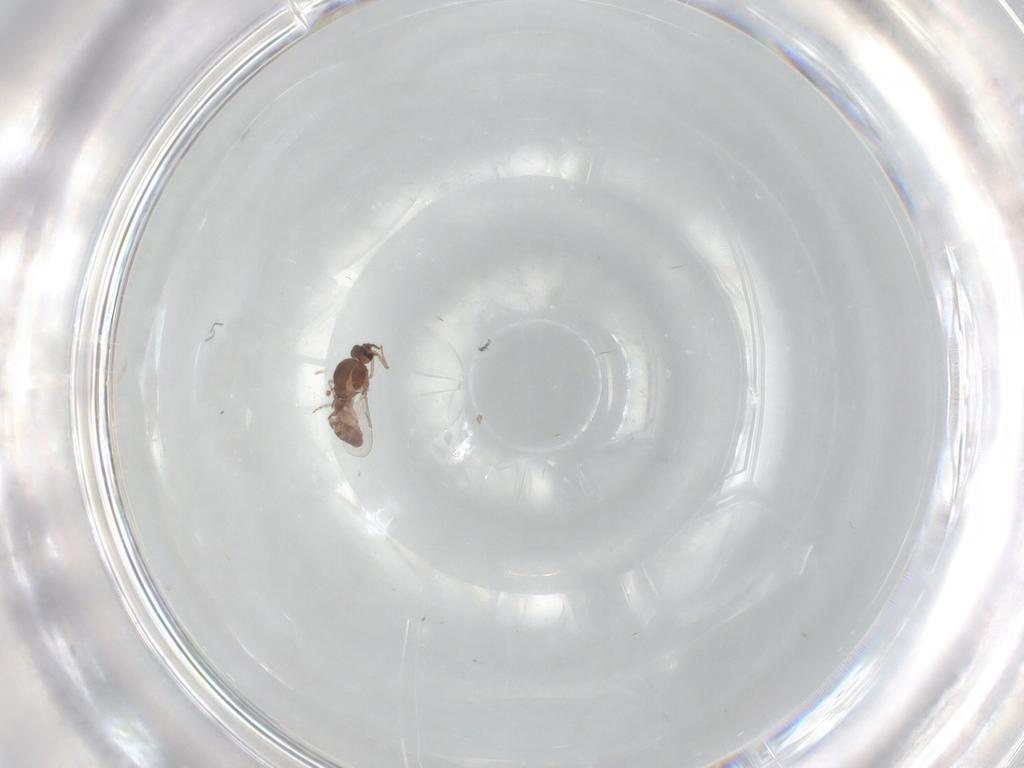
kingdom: Animalia
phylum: Arthropoda
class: Insecta
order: Diptera
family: Ceratopogonidae
